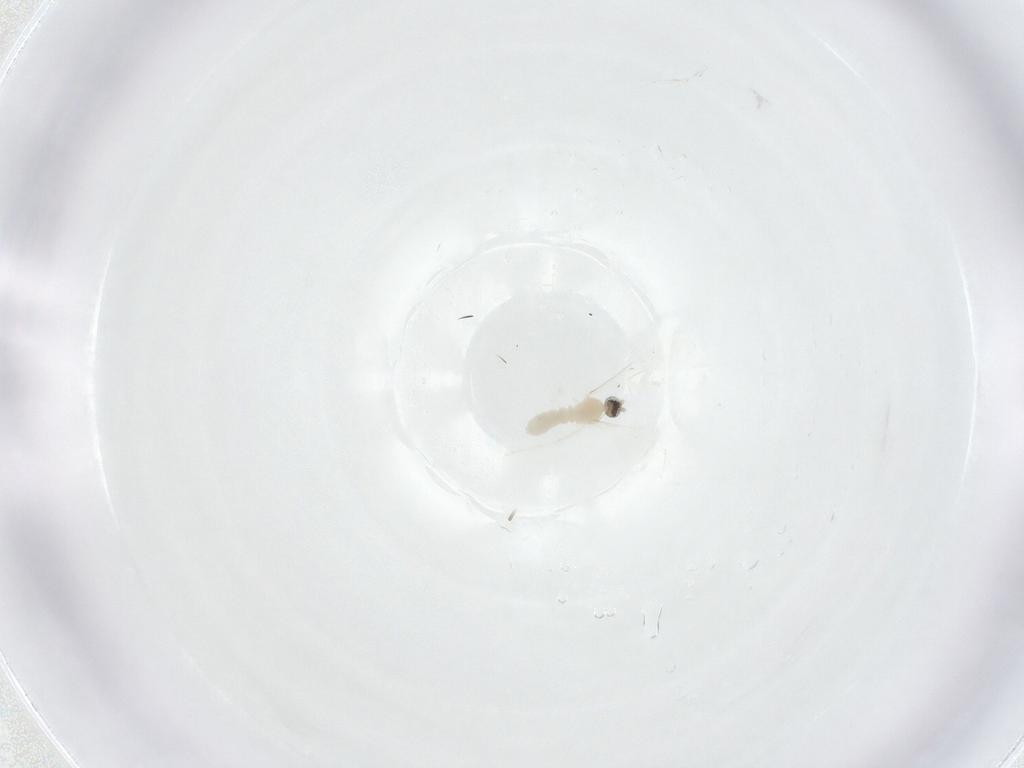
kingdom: Animalia
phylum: Arthropoda
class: Insecta
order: Diptera
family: Cecidomyiidae
